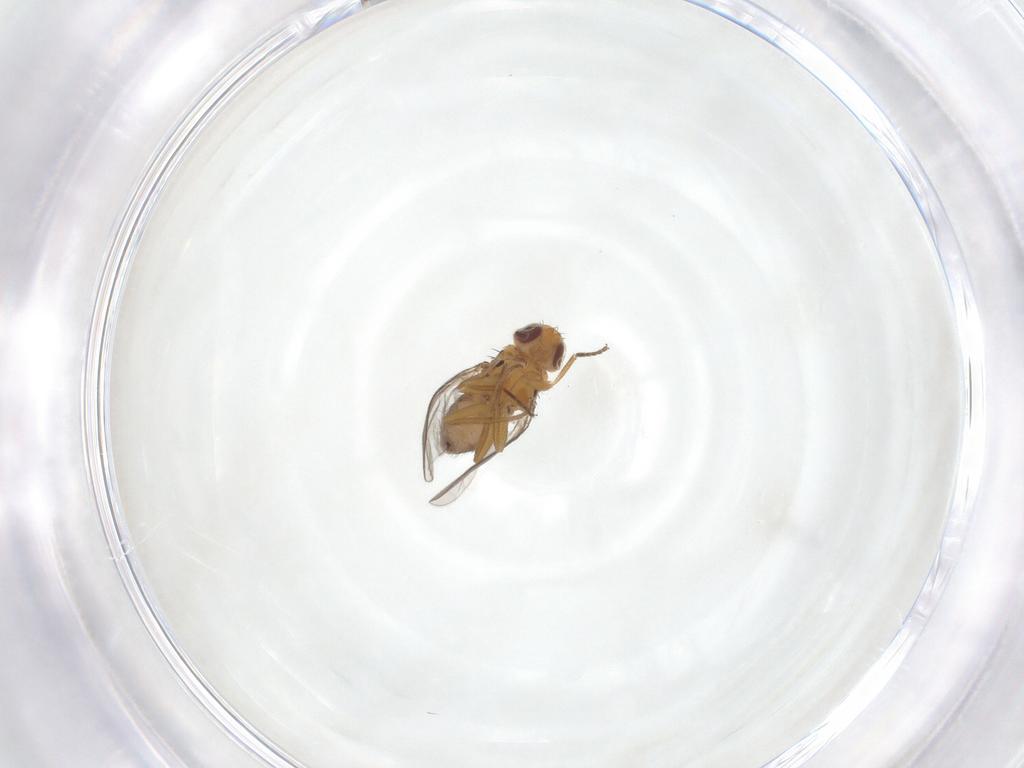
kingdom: Animalia
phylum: Arthropoda
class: Insecta
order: Diptera
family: Chloropidae
